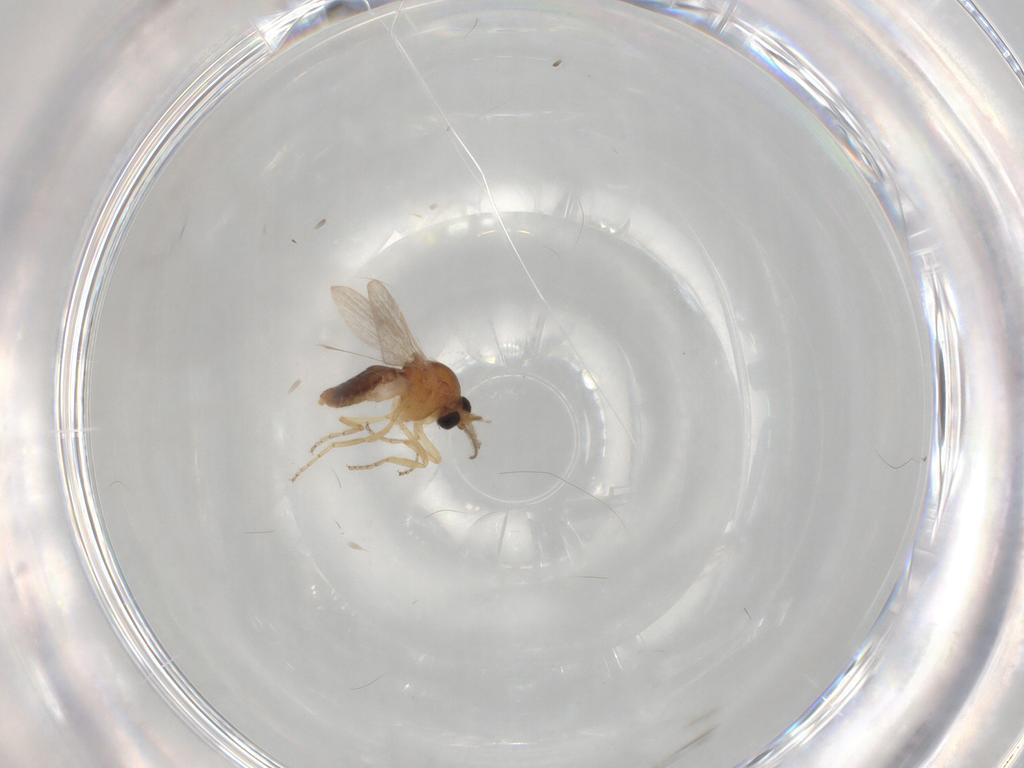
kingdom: Animalia
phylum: Arthropoda
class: Insecta
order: Diptera
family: Ceratopogonidae
